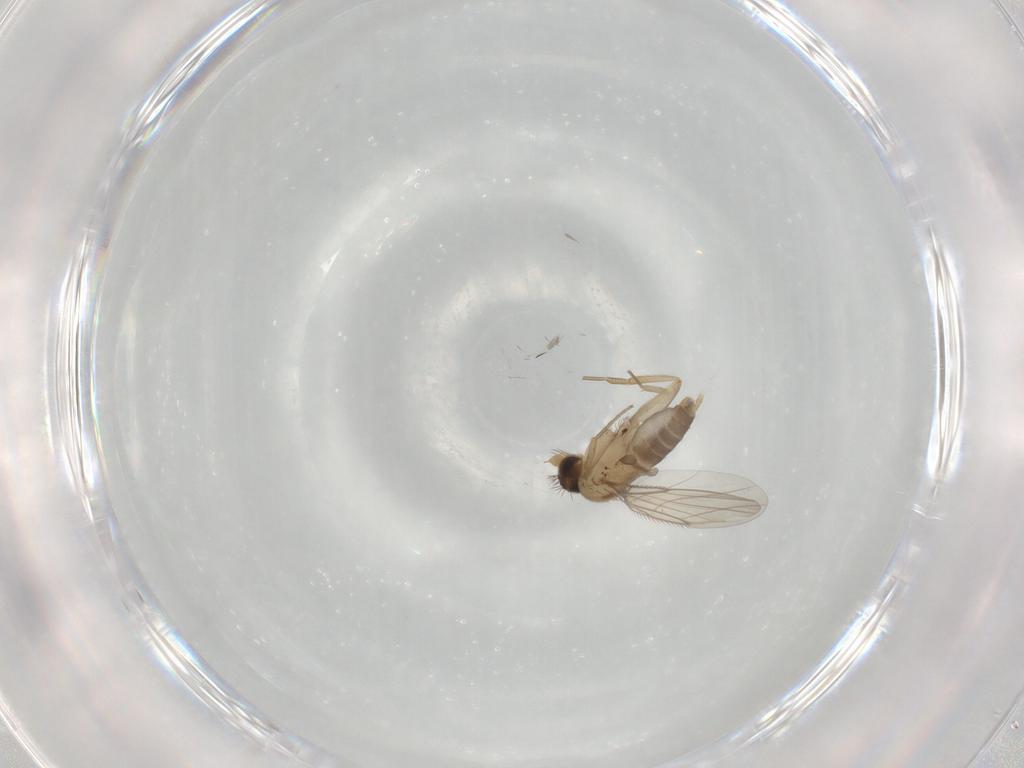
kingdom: Animalia
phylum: Arthropoda
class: Insecta
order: Diptera
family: Phoridae
